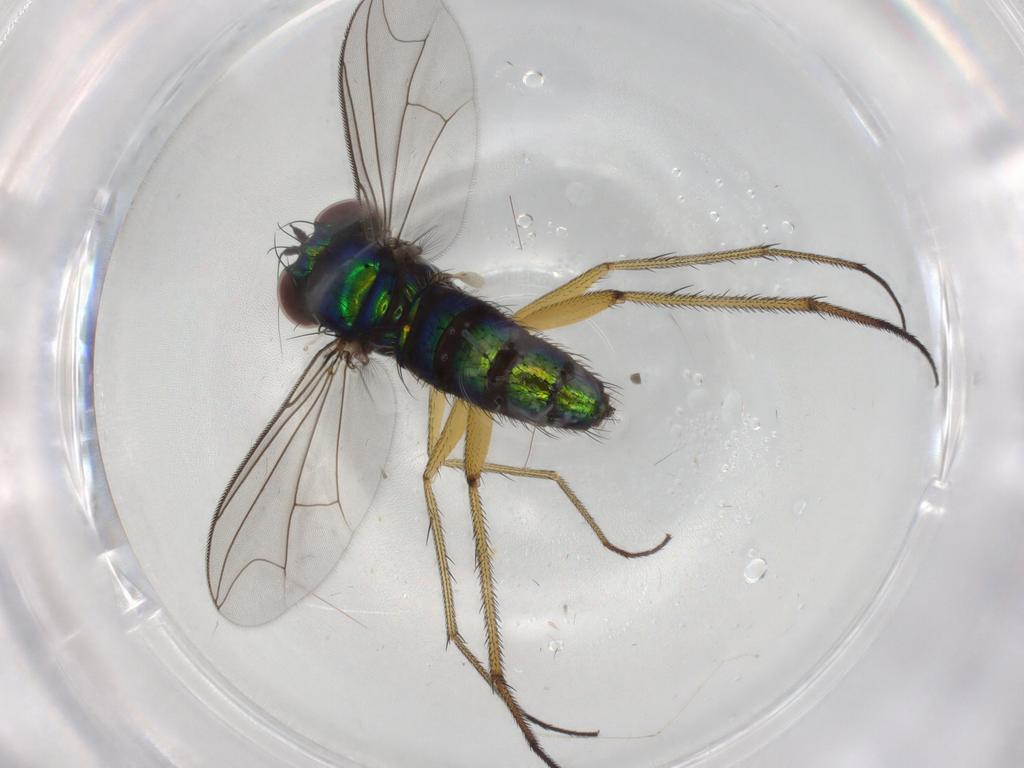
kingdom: Animalia
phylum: Arthropoda
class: Insecta
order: Diptera
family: Dolichopodidae
